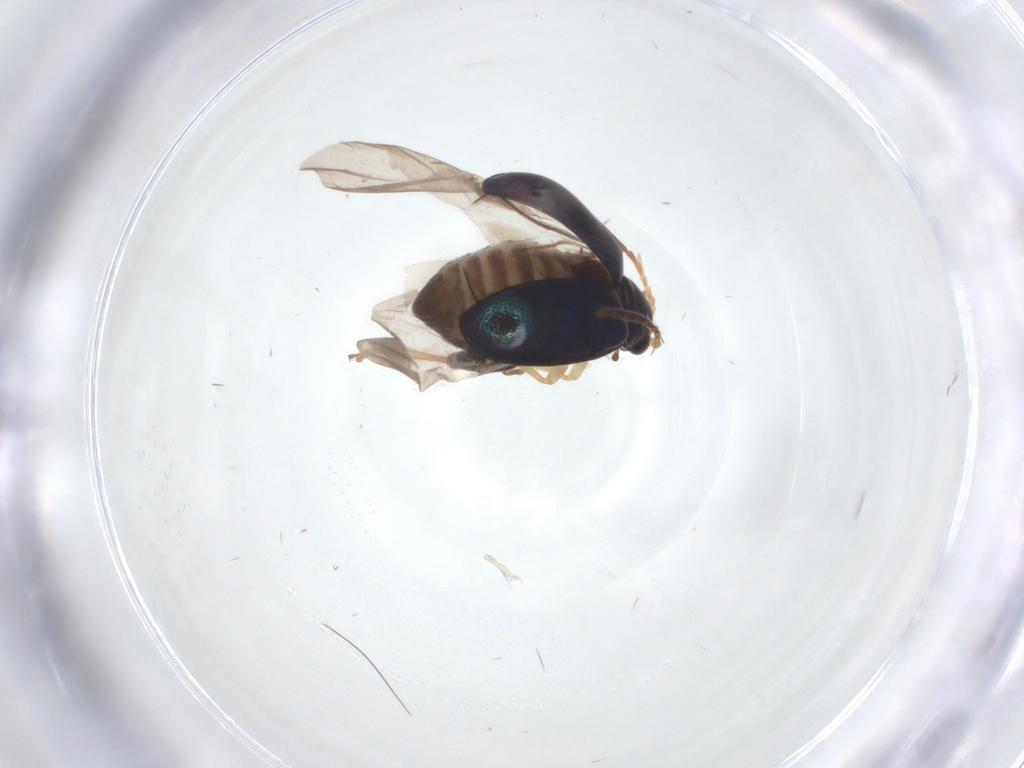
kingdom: Animalia
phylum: Arthropoda
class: Insecta
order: Coleoptera
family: Chrysomelidae
